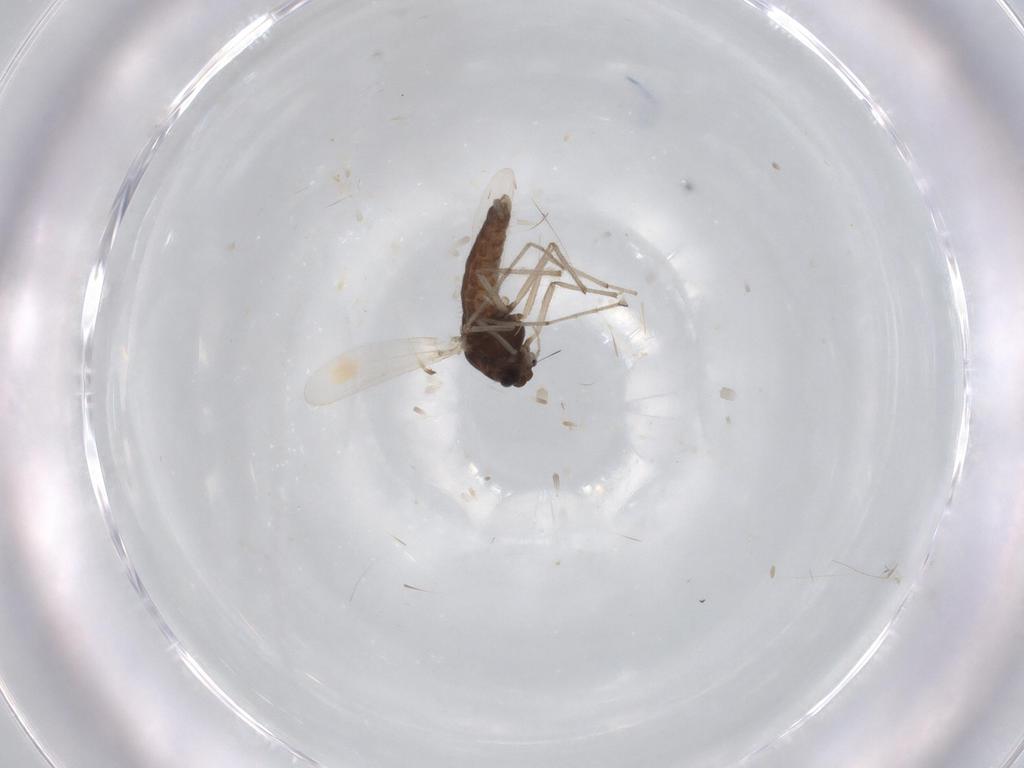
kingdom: Animalia
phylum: Arthropoda
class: Insecta
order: Diptera
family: Chironomidae
